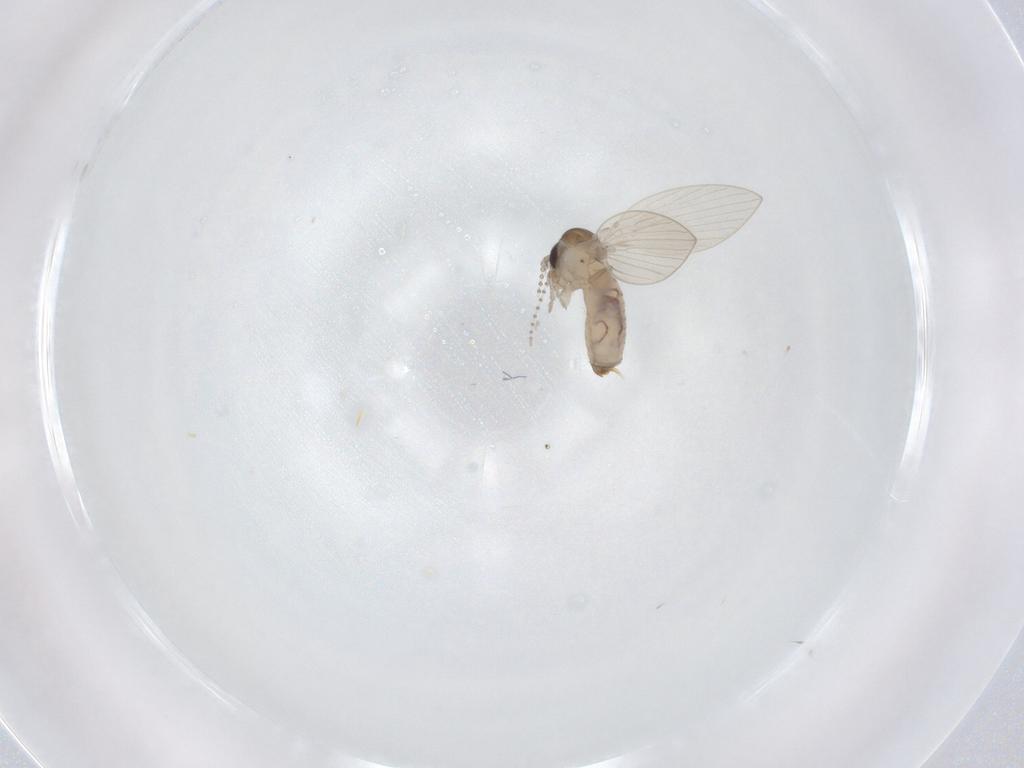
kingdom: Animalia
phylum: Arthropoda
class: Insecta
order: Diptera
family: Psychodidae
